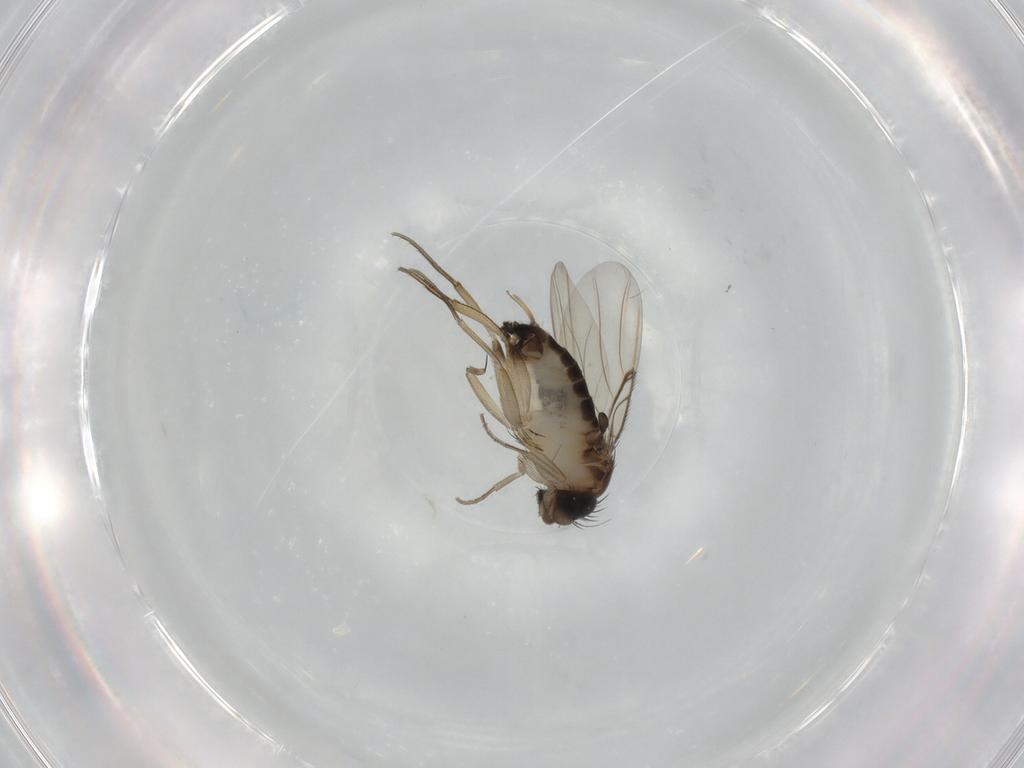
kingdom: Animalia
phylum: Arthropoda
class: Insecta
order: Diptera
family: Phoridae
